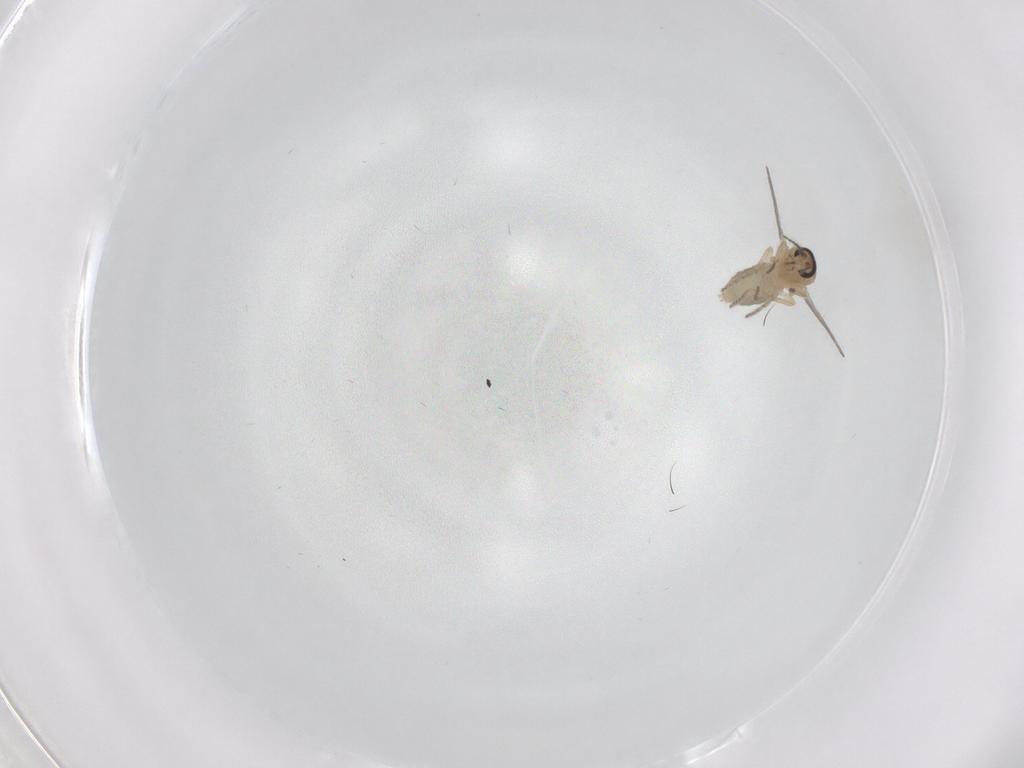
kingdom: Animalia
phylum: Arthropoda
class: Insecta
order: Diptera
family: Ceratopogonidae
